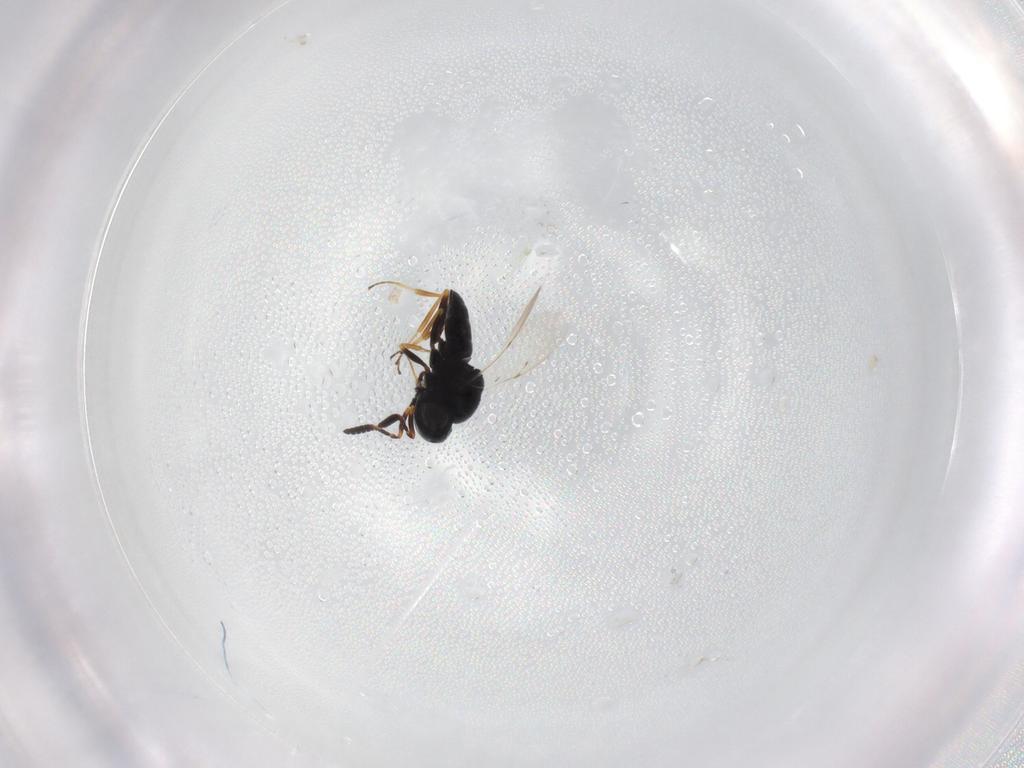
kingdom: Animalia
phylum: Arthropoda
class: Insecta
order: Hymenoptera
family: Scelionidae
